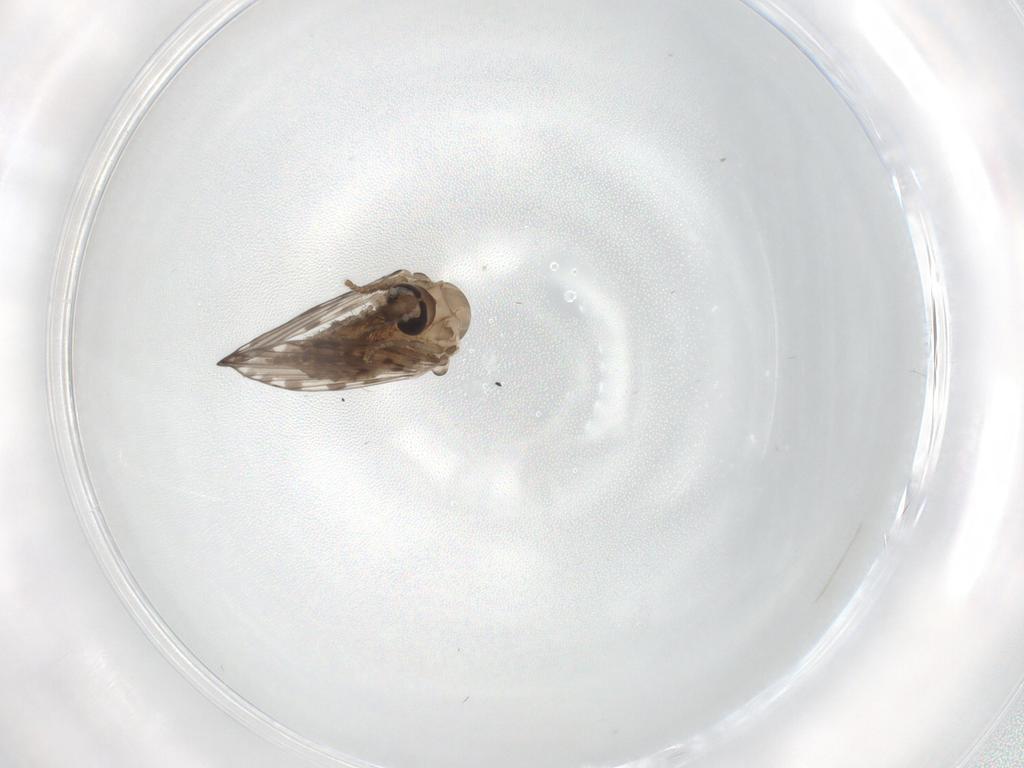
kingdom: Animalia
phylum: Arthropoda
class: Insecta
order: Diptera
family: Psychodidae
